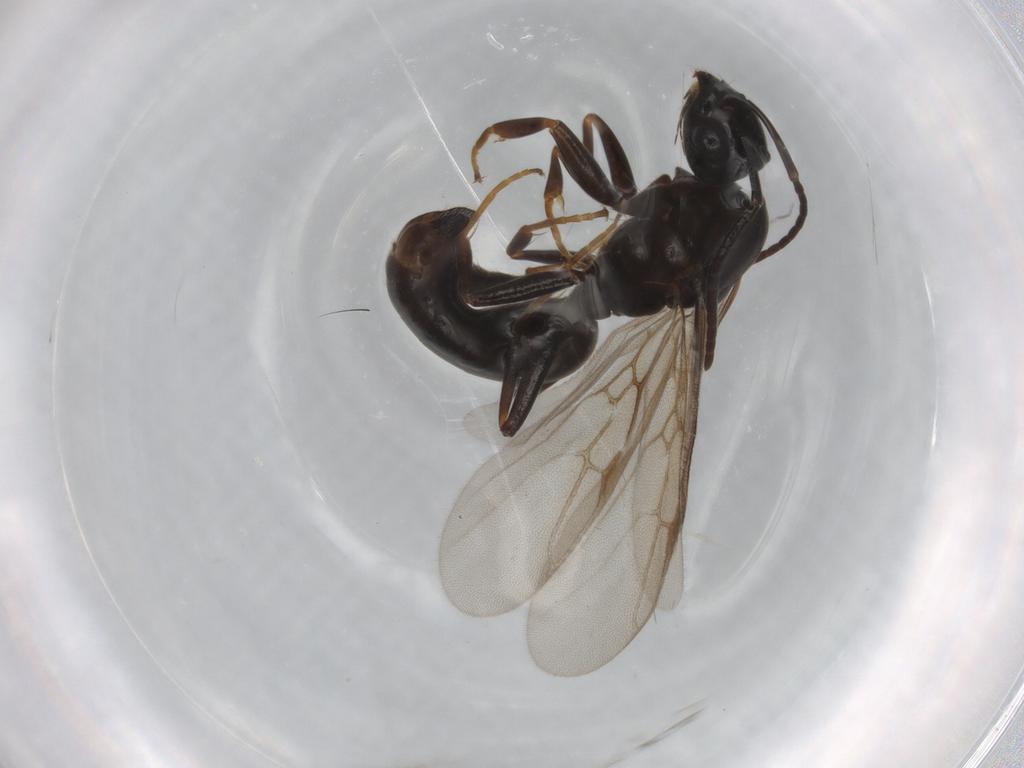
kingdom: Animalia
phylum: Arthropoda
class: Insecta
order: Hymenoptera
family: Formicidae
